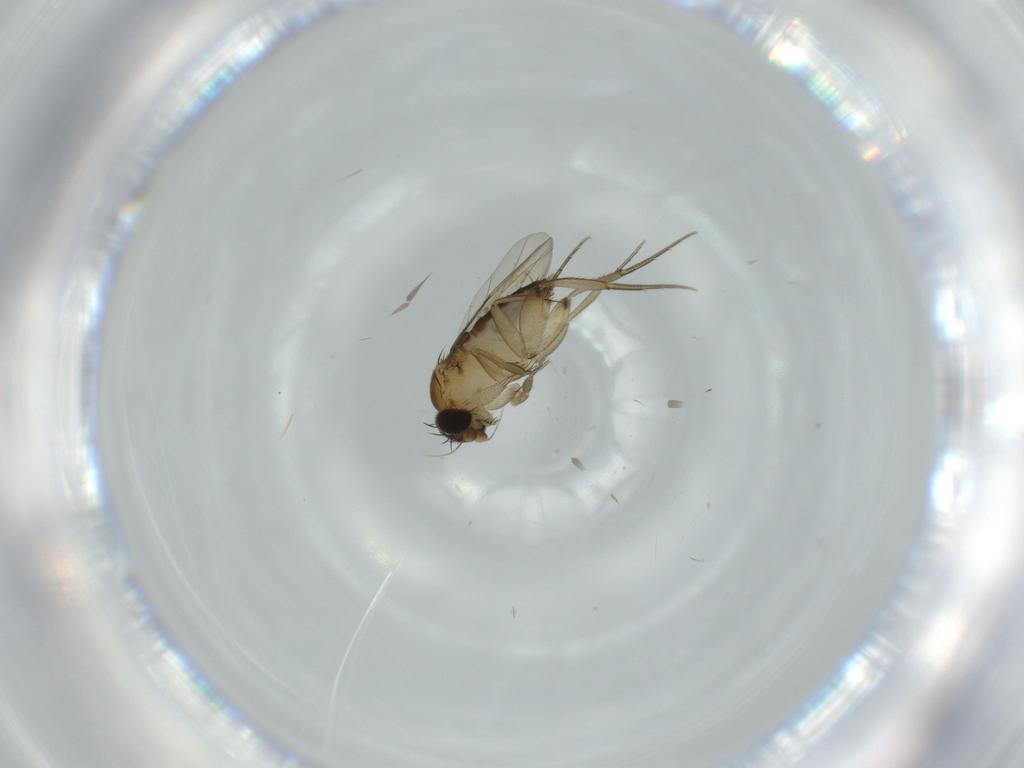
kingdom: Animalia
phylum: Arthropoda
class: Insecta
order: Diptera
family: Phoridae
